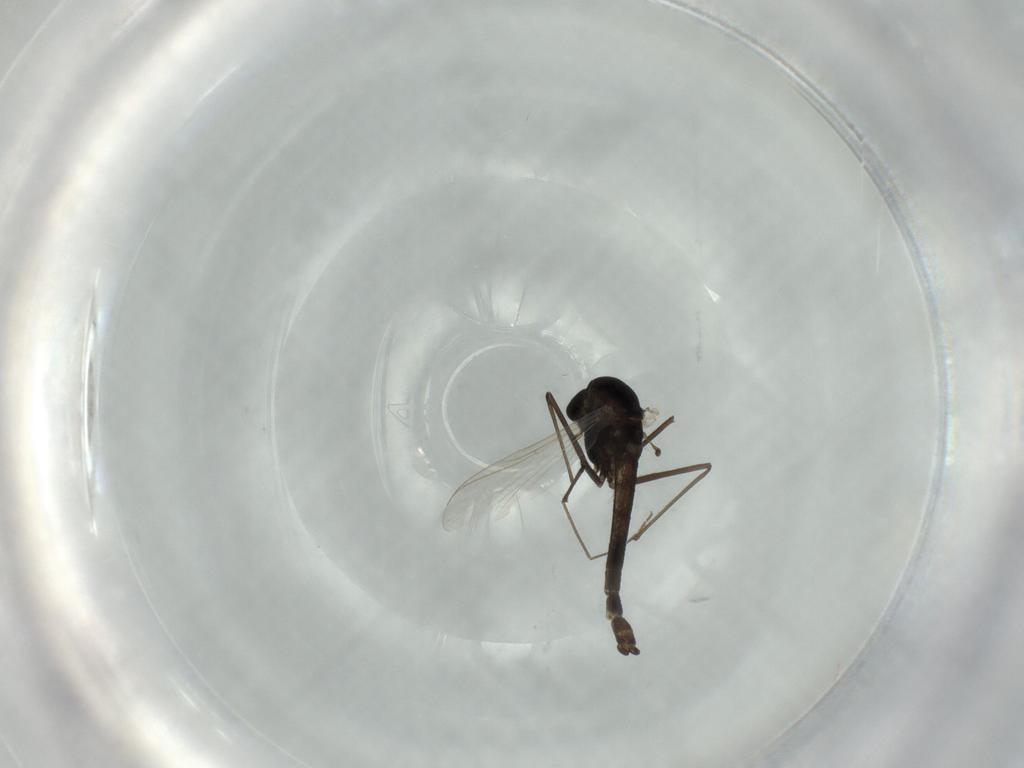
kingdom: Animalia
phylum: Arthropoda
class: Insecta
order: Diptera
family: Chironomidae
